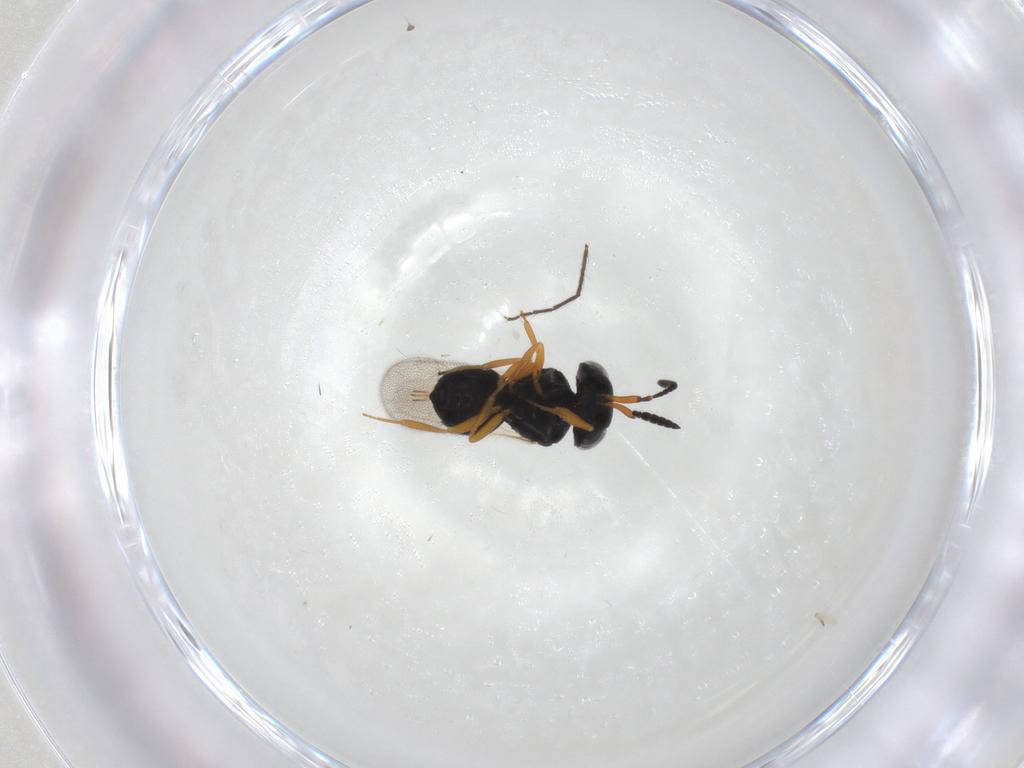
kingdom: Animalia
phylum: Arthropoda
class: Insecta
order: Hymenoptera
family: Scelionidae
